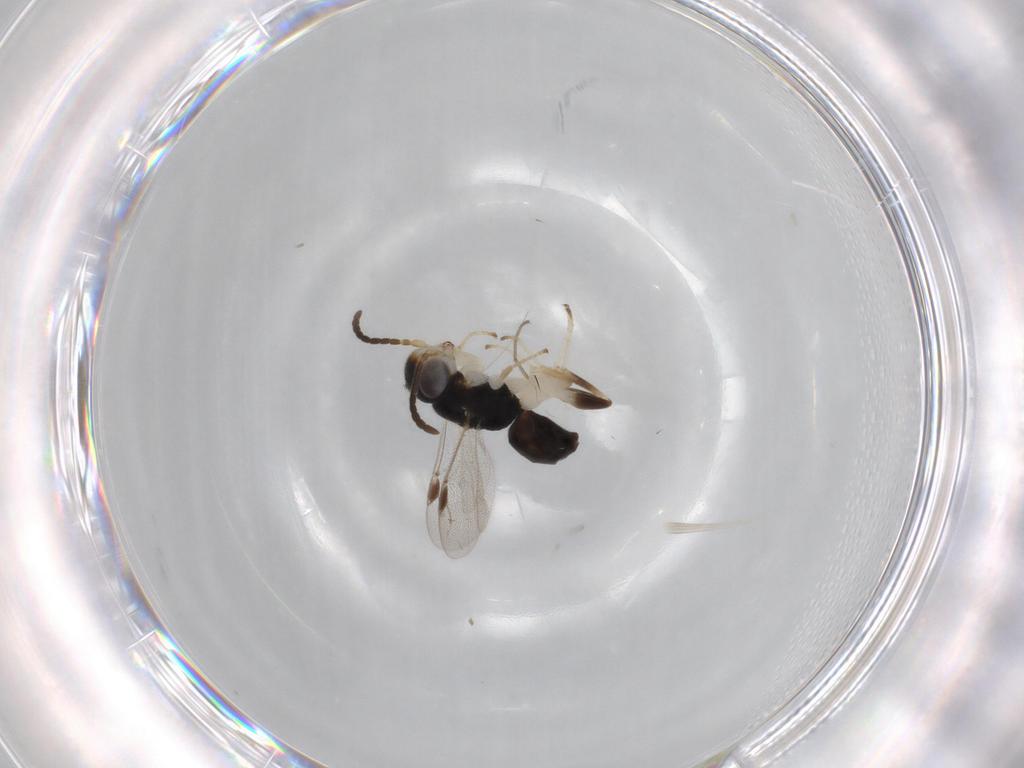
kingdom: Animalia
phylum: Arthropoda
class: Insecta
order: Hymenoptera
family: Dryinidae
